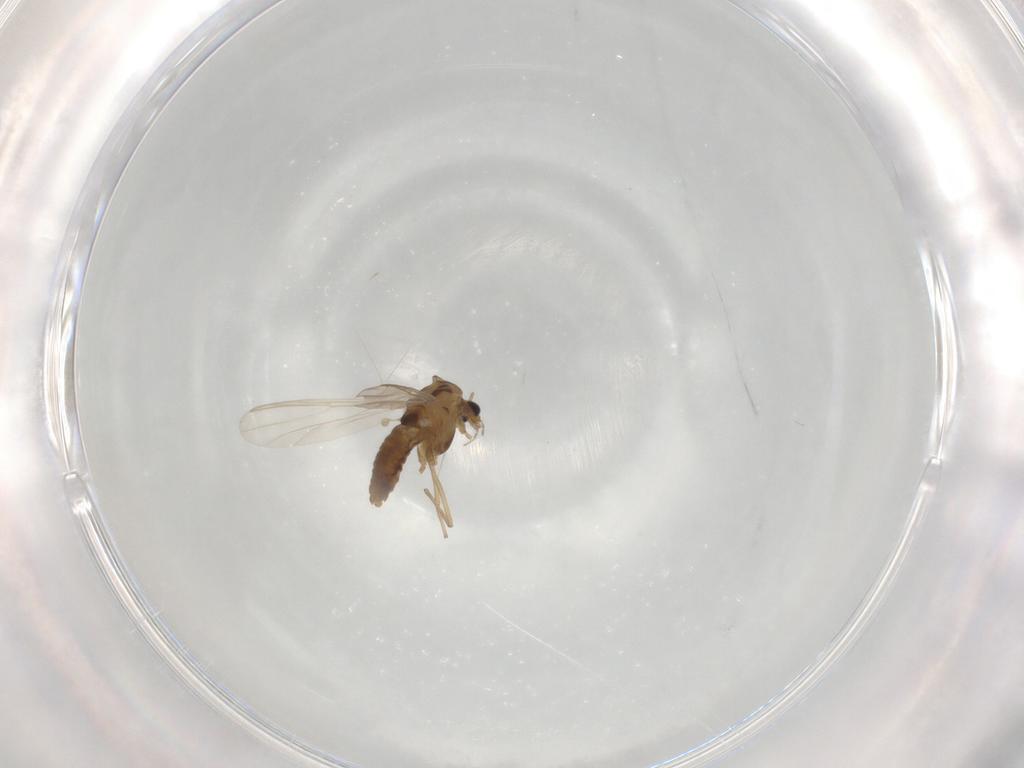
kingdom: Animalia
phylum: Arthropoda
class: Insecta
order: Diptera
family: Chironomidae
